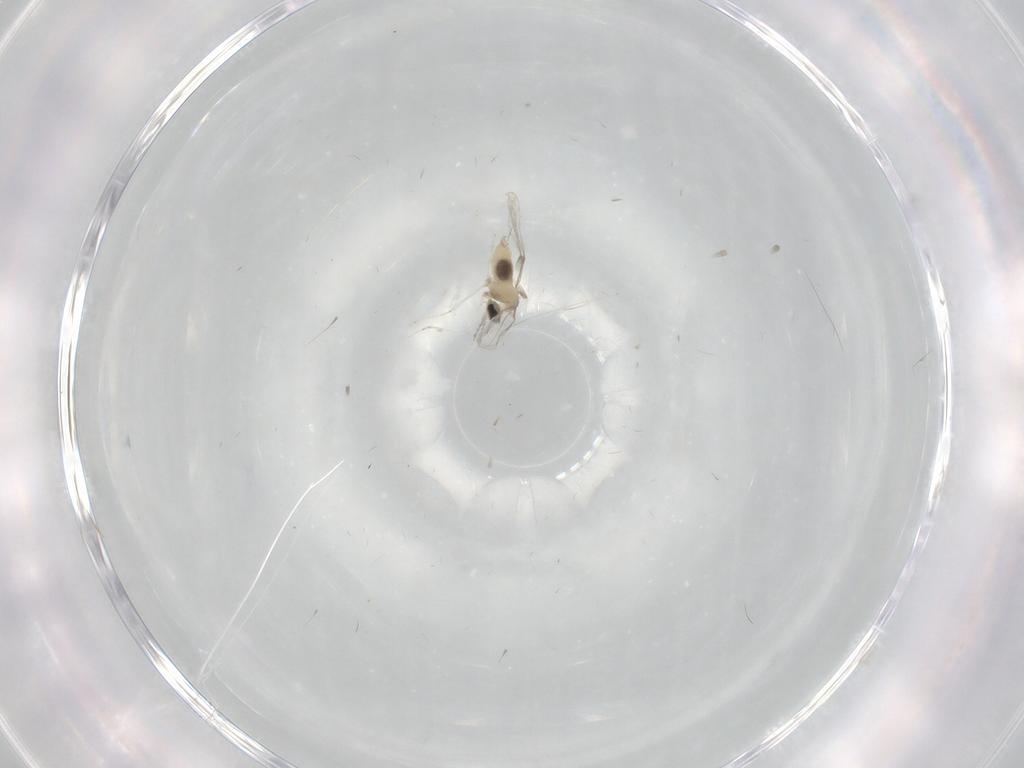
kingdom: Animalia
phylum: Arthropoda
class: Insecta
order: Diptera
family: Cecidomyiidae
